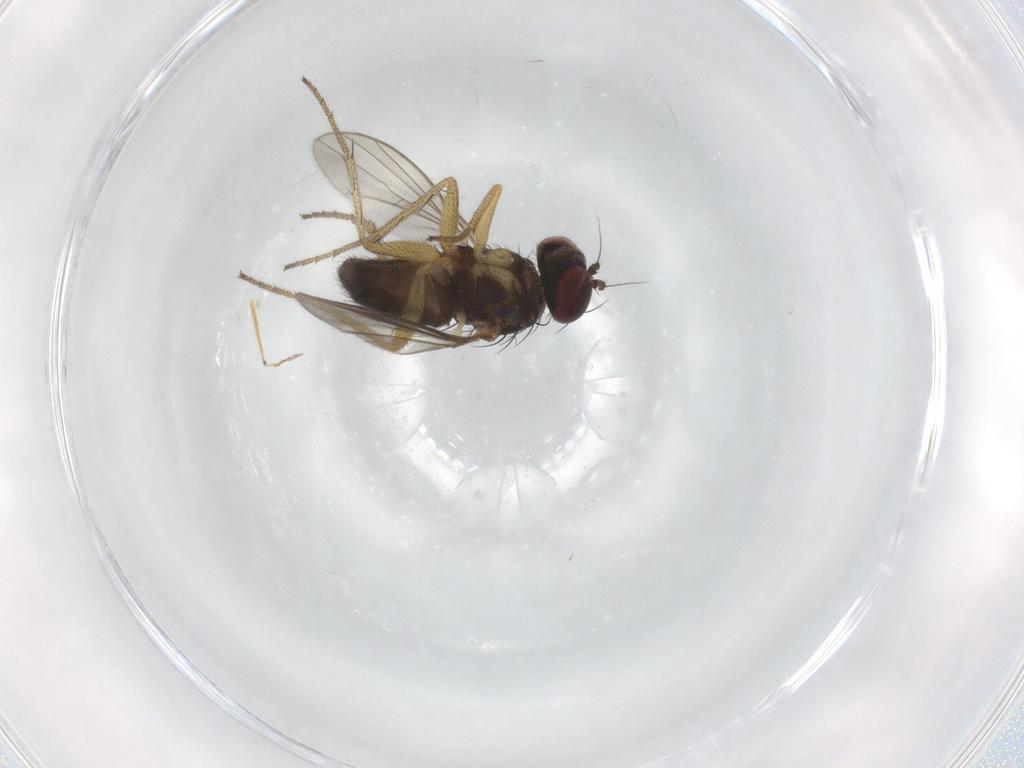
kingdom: Animalia
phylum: Arthropoda
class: Insecta
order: Diptera
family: Dolichopodidae
